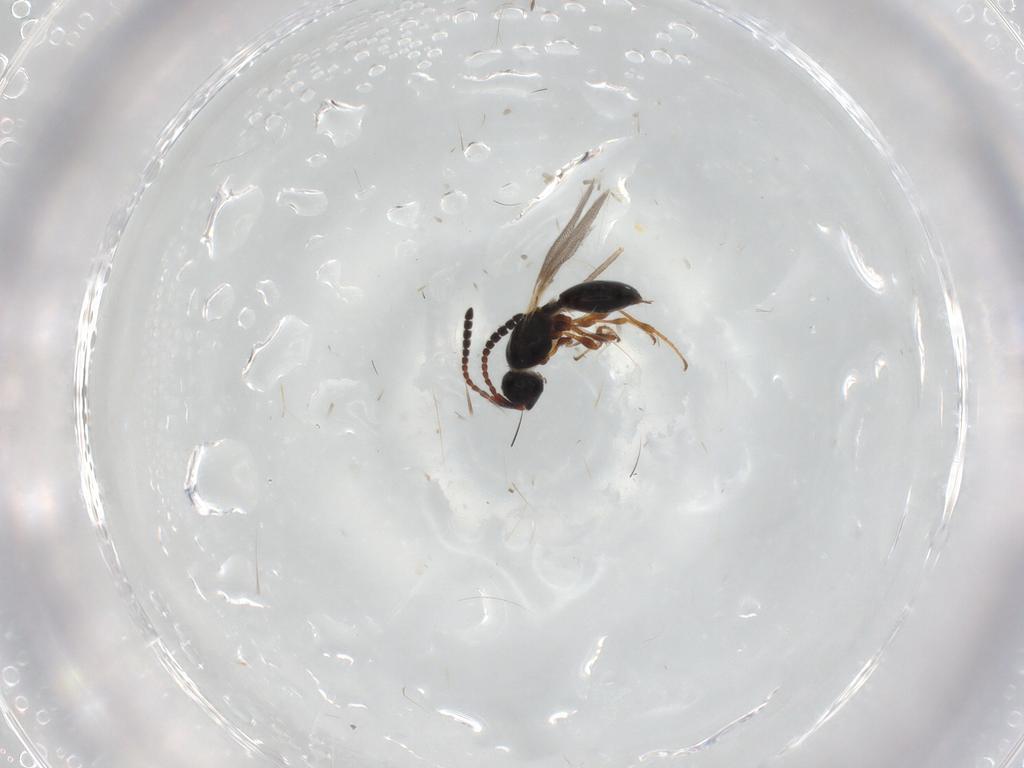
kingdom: Animalia
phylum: Arthropoda
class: Insecta
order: Hymenoptera
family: Diapriidae
